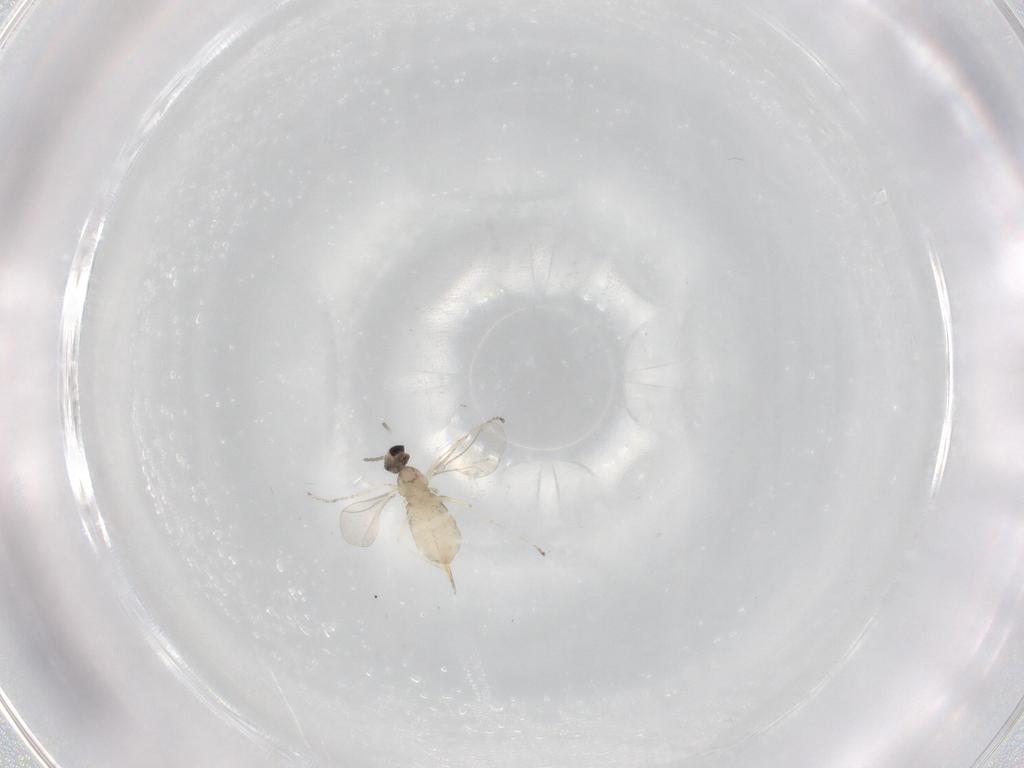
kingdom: Animalia
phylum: Arthropoda
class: Insecta
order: Diptera
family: Cecidomyiidae
